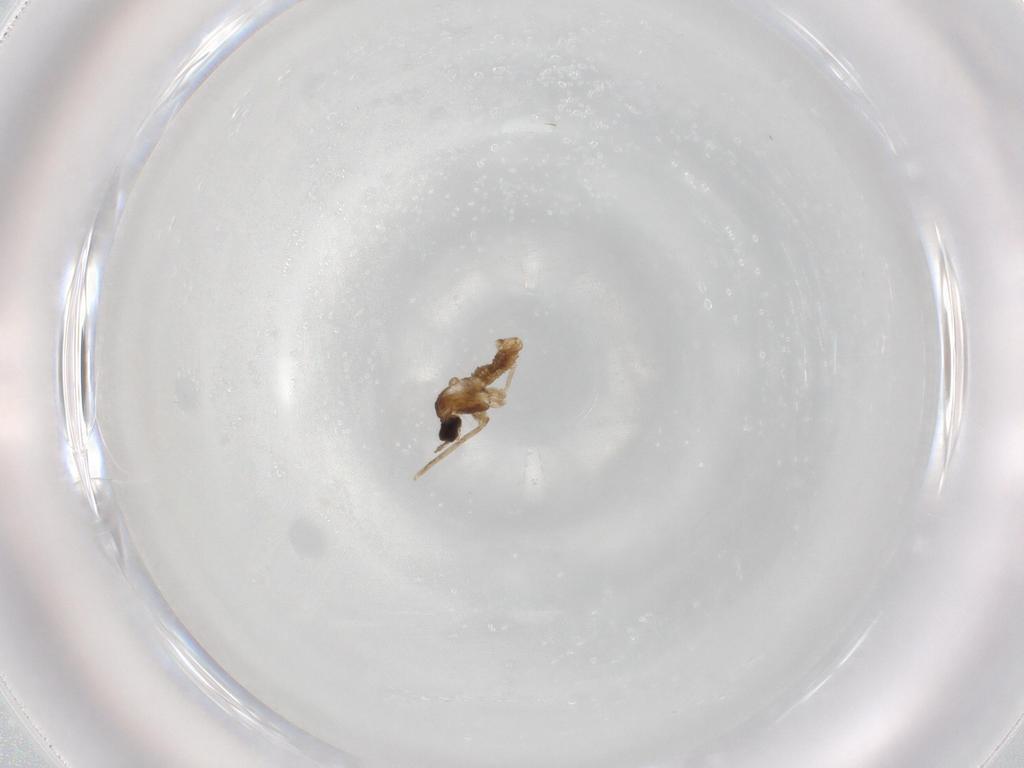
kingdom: Animalia
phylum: Arthropoda
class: Insecta
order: Diptera
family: Cecidomyiidae
